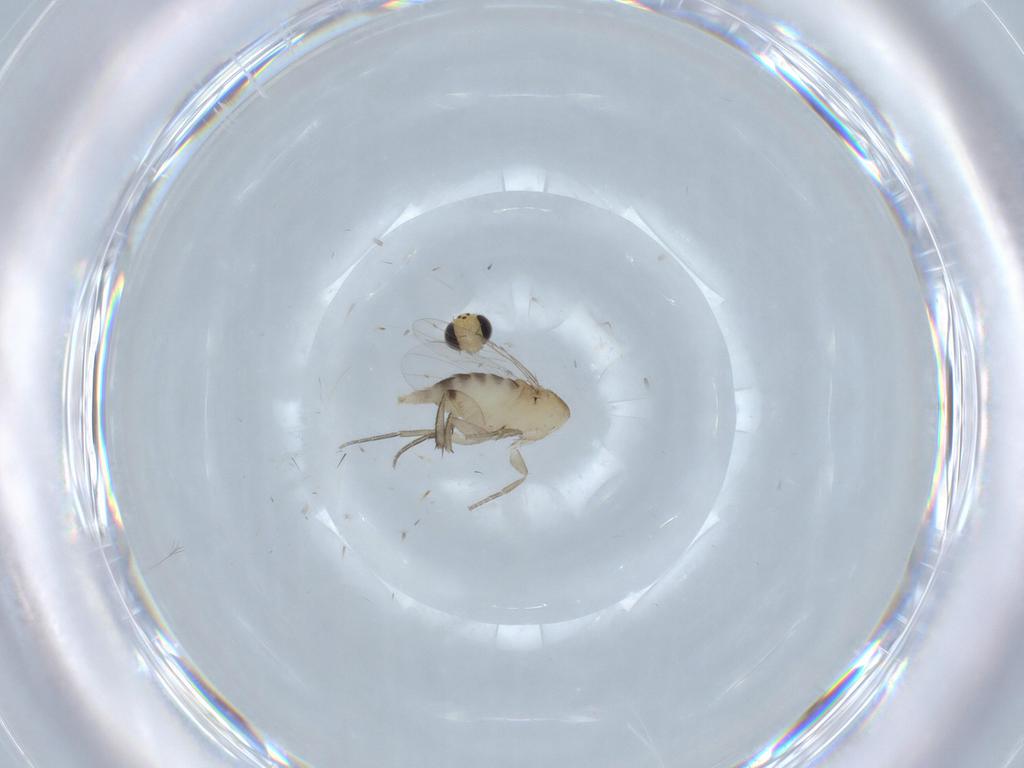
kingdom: Animalia
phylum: Arthropoda
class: Insecta
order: Diptera
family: Chironomidae
